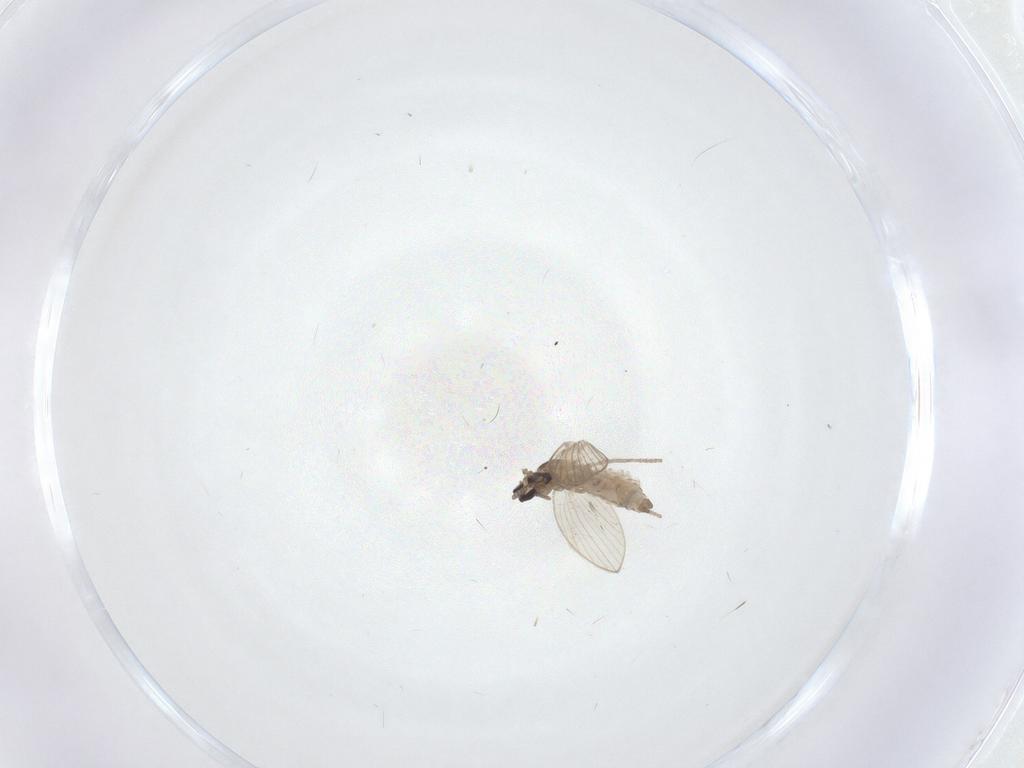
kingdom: Animalia
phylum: Arthropoda
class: Insecta
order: Diptera
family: Psychodidae
